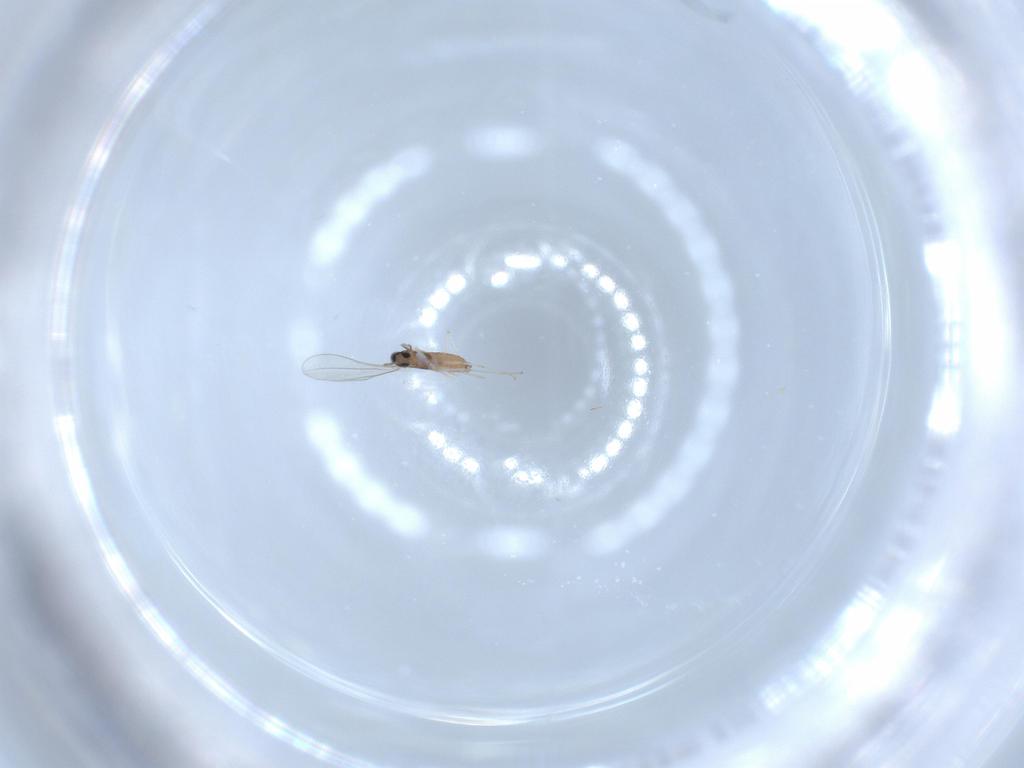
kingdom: Animalia
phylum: Arthropoda
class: Insecta
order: Diptera
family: Cecidomyiidae
